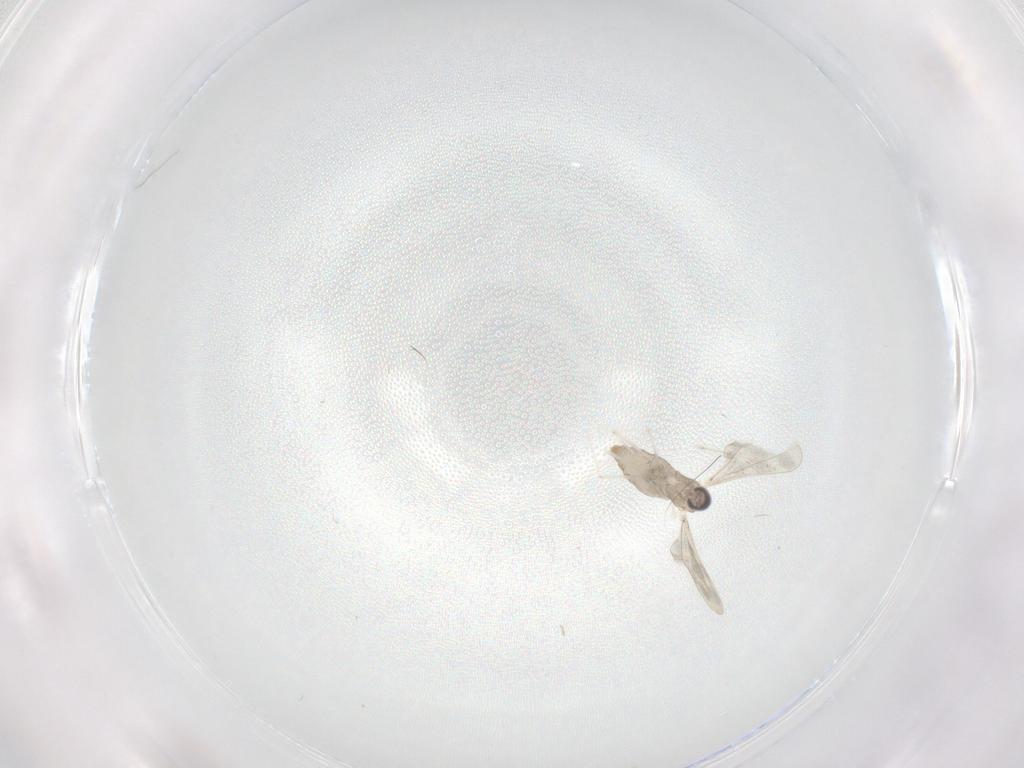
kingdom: Animalia
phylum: Arthropoda
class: Insecta
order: Diptera
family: Cecidomyiidae
